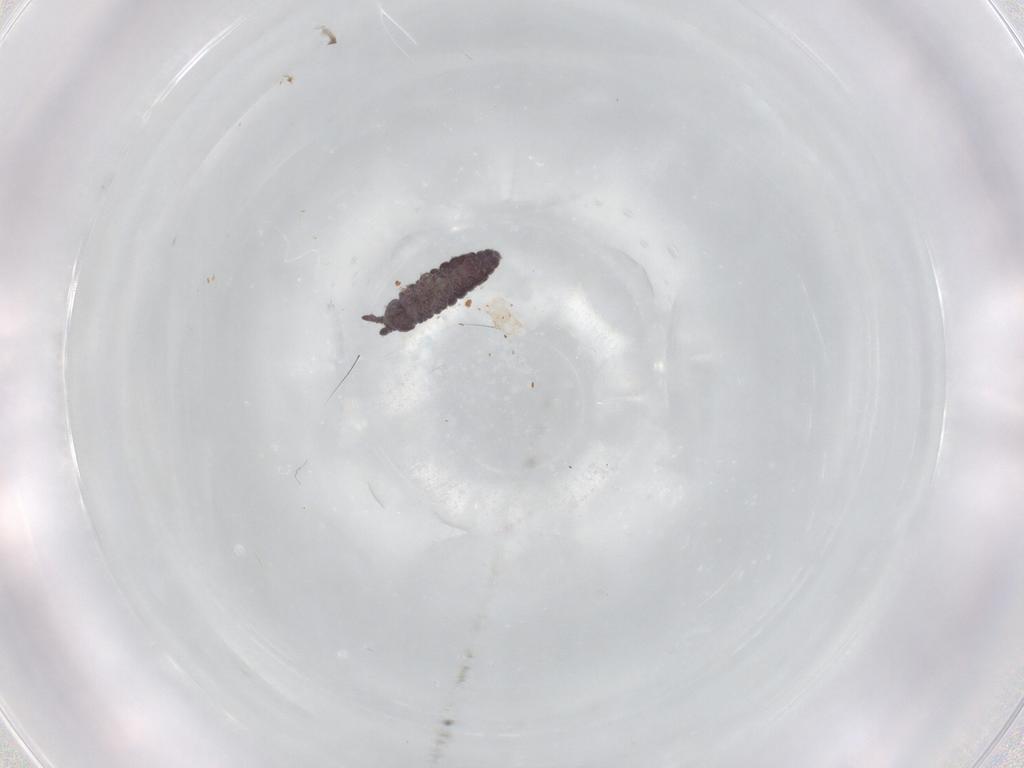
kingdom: Animalia
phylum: Arthropoda
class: Collembola
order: Poduromorpha
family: Hypogastruridae
